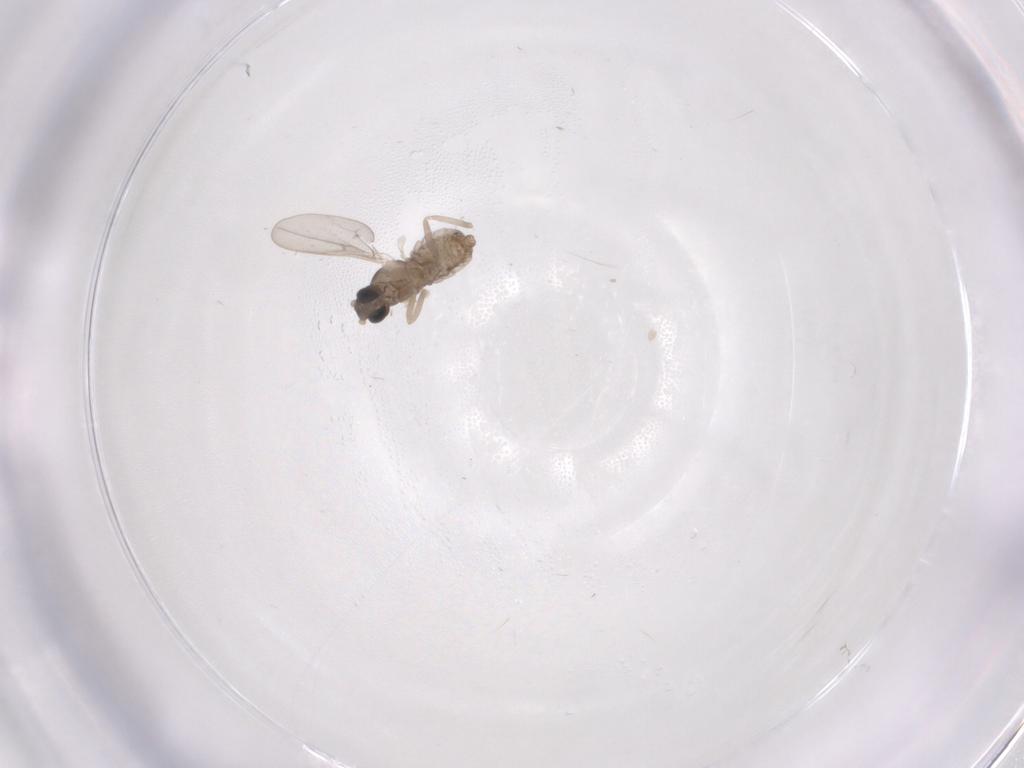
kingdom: Animalia
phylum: Arthropoda
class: Insecta
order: Diptera
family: Cecidomyiidae
